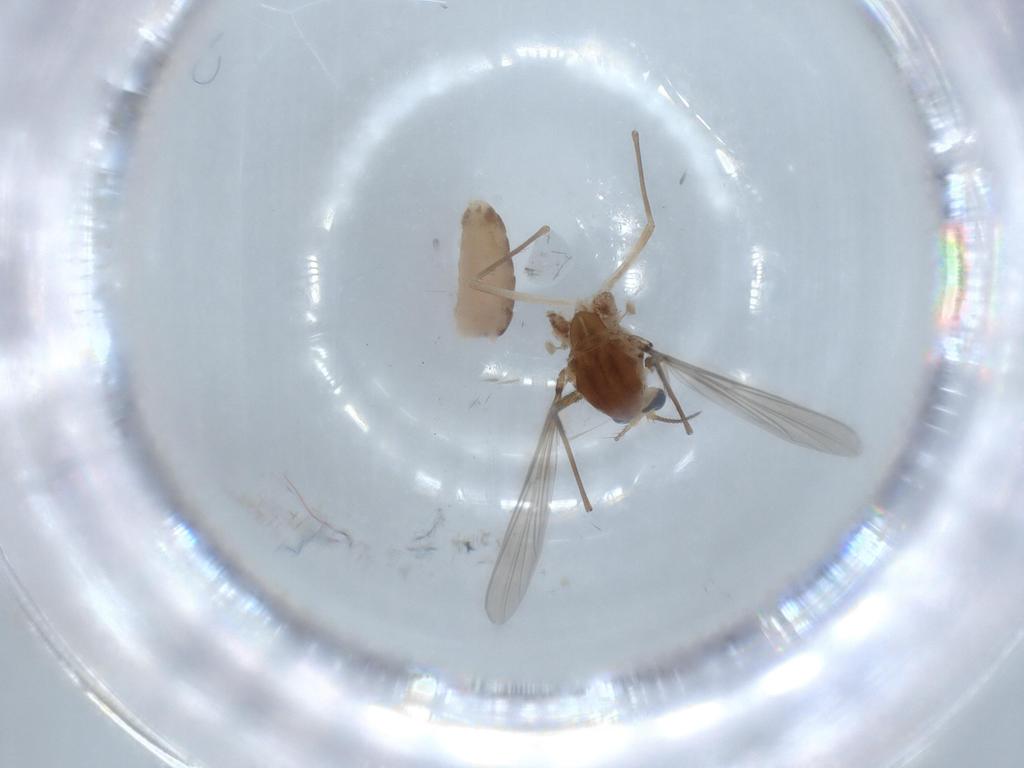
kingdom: Animalia
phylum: Arthropoda
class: Insecta
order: Diptera
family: Chironomidae
